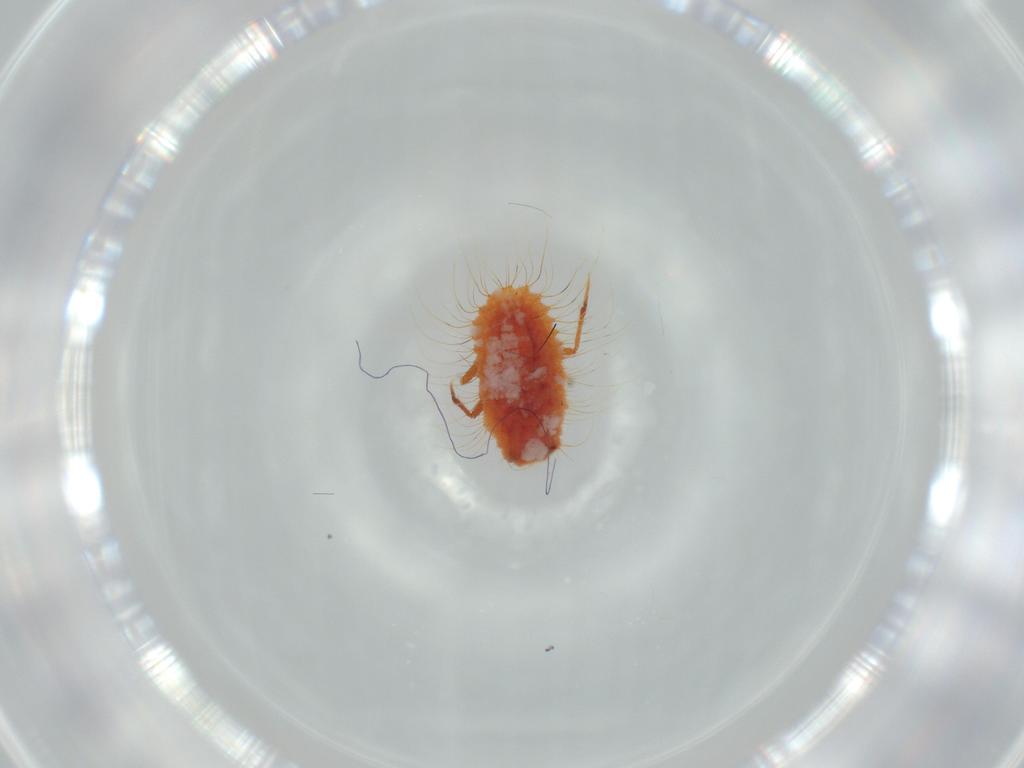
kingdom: Animalia
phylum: Arthropoda
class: Insecta
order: Hemiptera
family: Coccoidea_incertae_sedis
